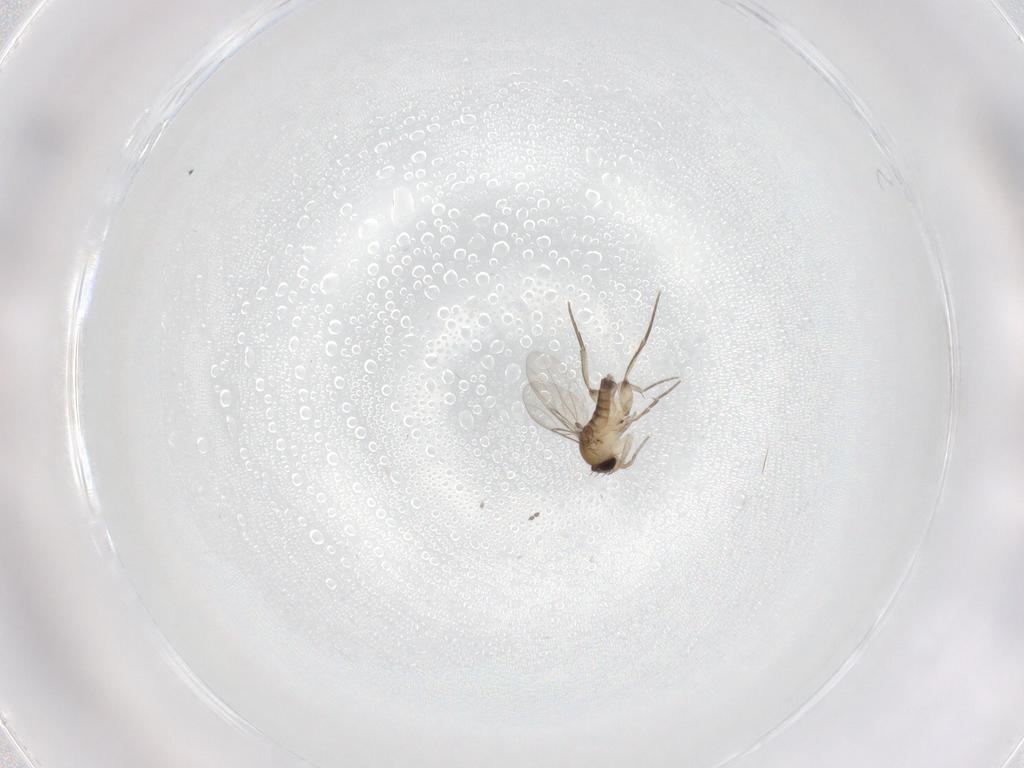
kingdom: Animalia
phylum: Arthropoda
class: Insecta
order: Diptera
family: Phoridae
